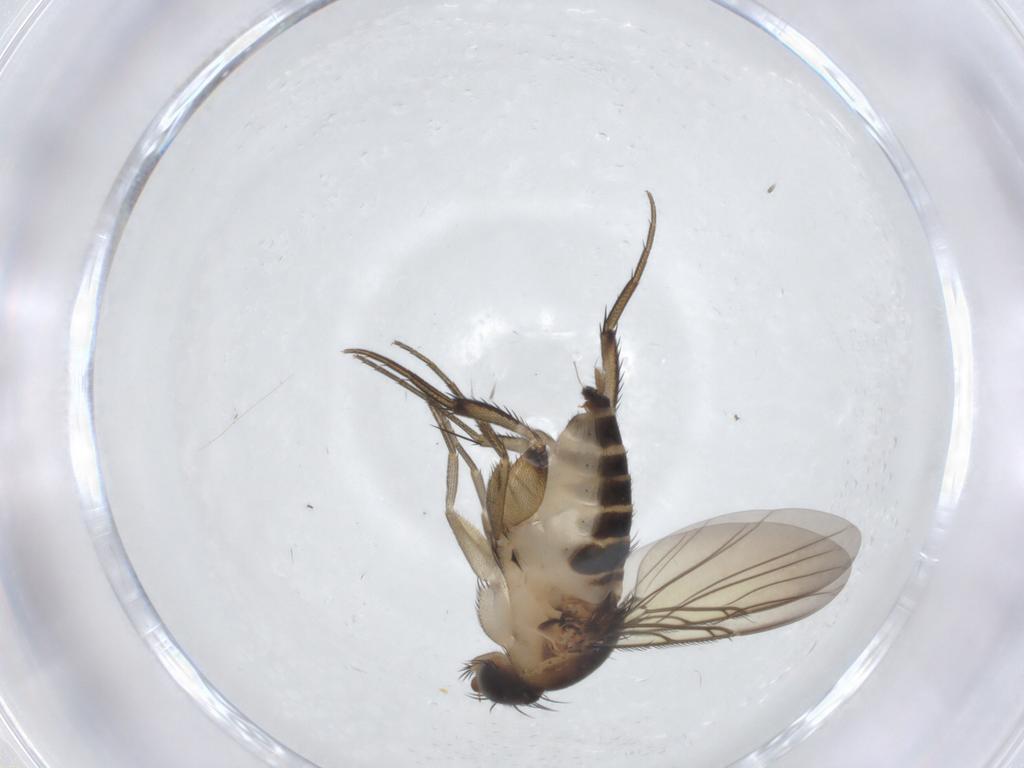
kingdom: Animalia
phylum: Arthropoda
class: Insecta
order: Diptera
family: Phoridae
